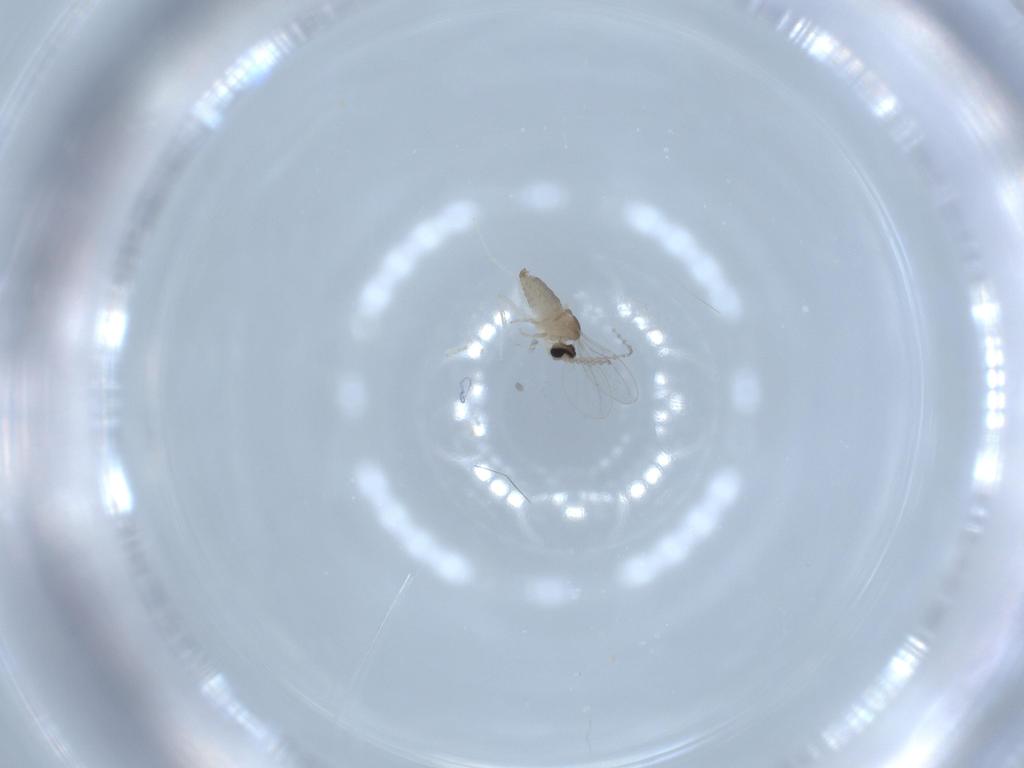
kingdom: Animalia
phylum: Arthropoda
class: Insecta
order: Diptera
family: Cecidomyiidae
